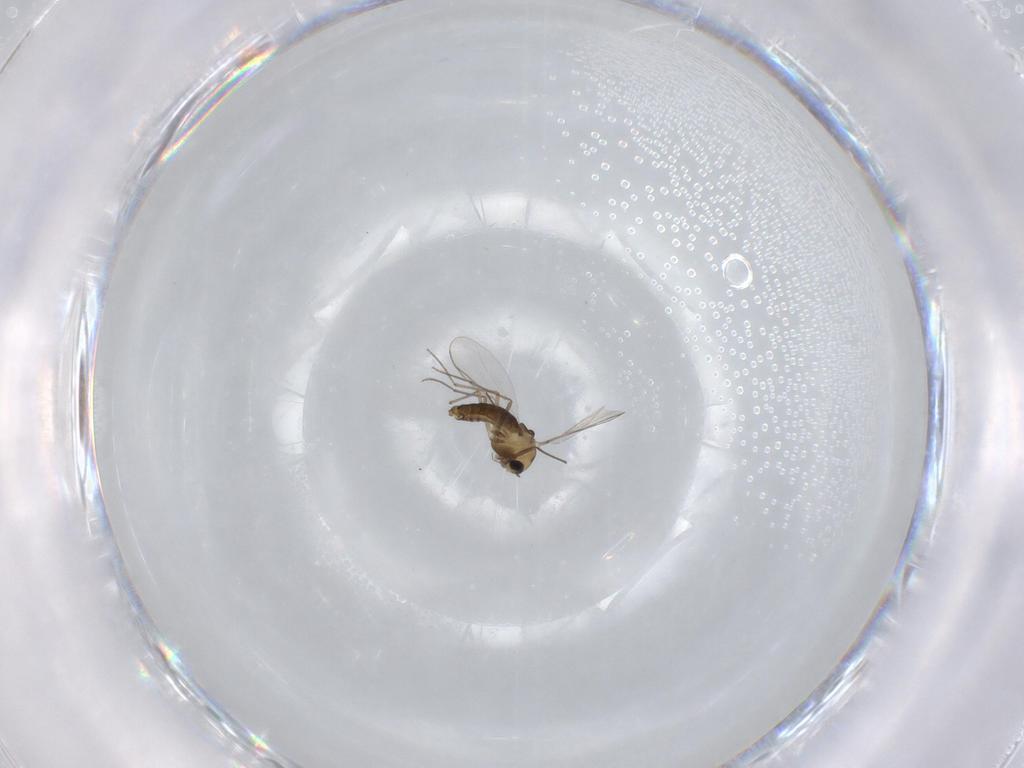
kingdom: Animalia
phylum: Arthropoda
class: Insecta
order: Diptera
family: Chironomidae
